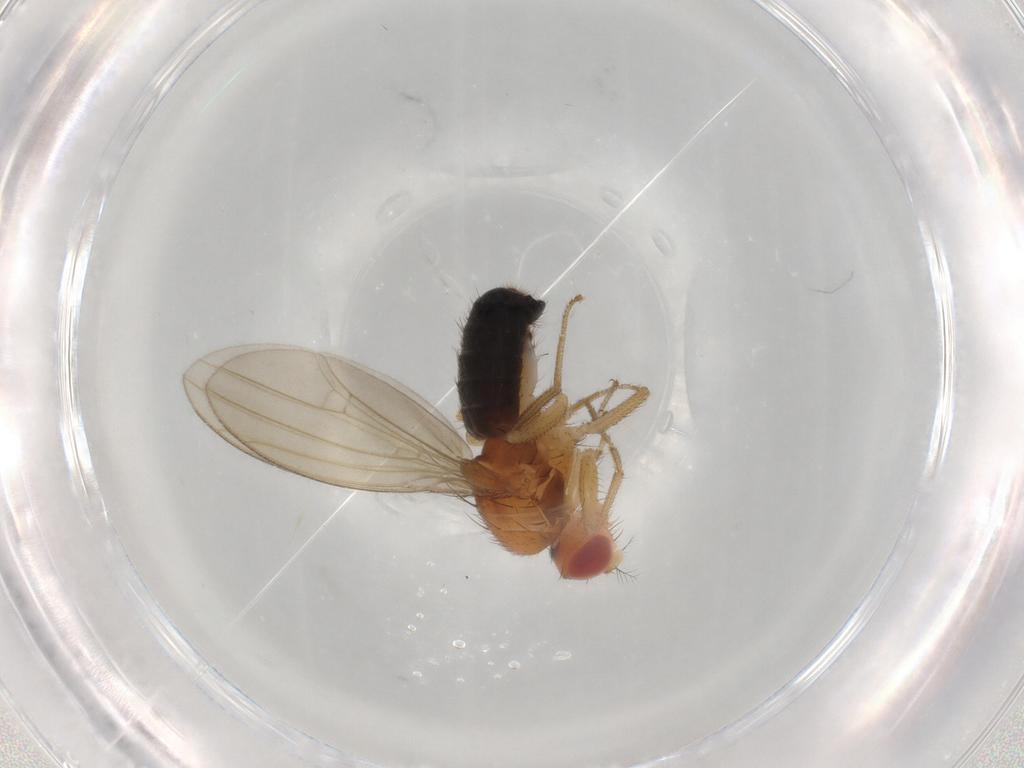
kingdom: Animalia
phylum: Arthropoda
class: Insecta
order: Diptera
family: Drosophilidae
